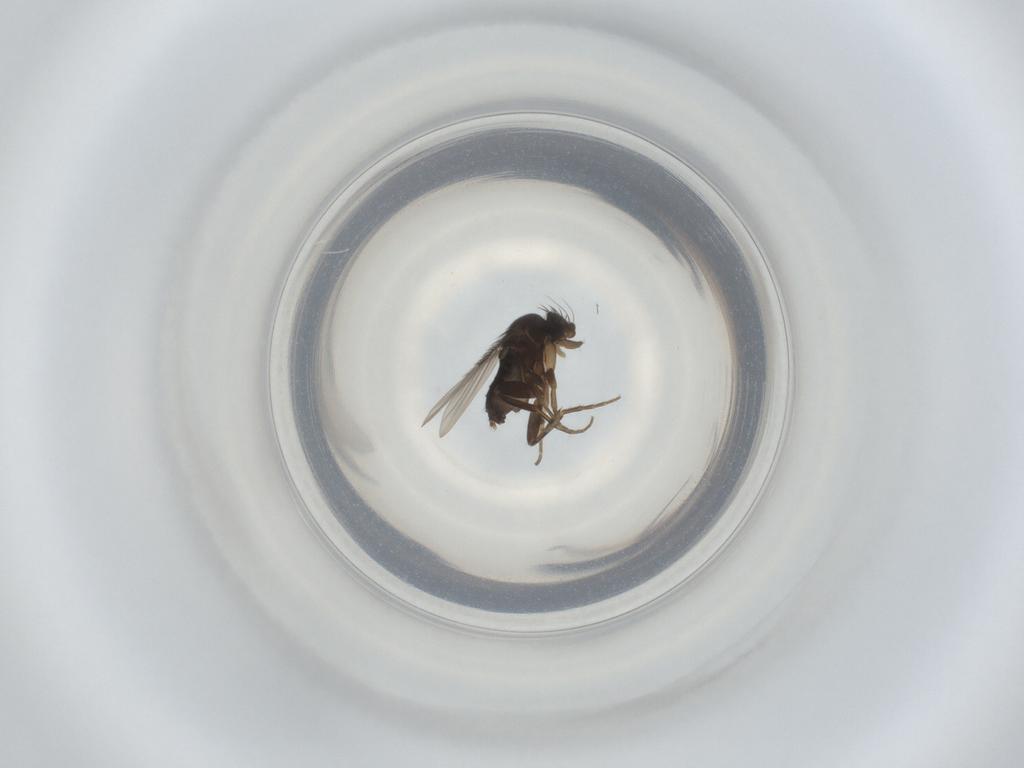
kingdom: Animalia
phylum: Arthropoda
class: Insecta
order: Diptera
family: Phoridae
